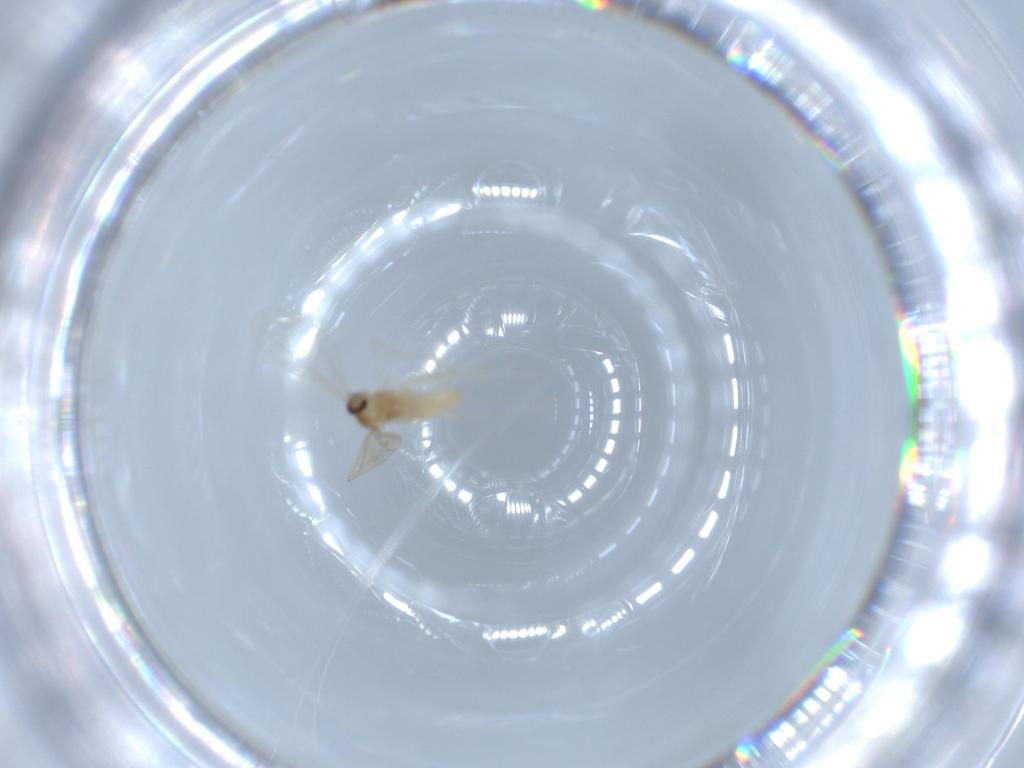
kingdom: Animalia
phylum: Arthropoda
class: Insecta
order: Diptera
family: Cecidomyiidae
